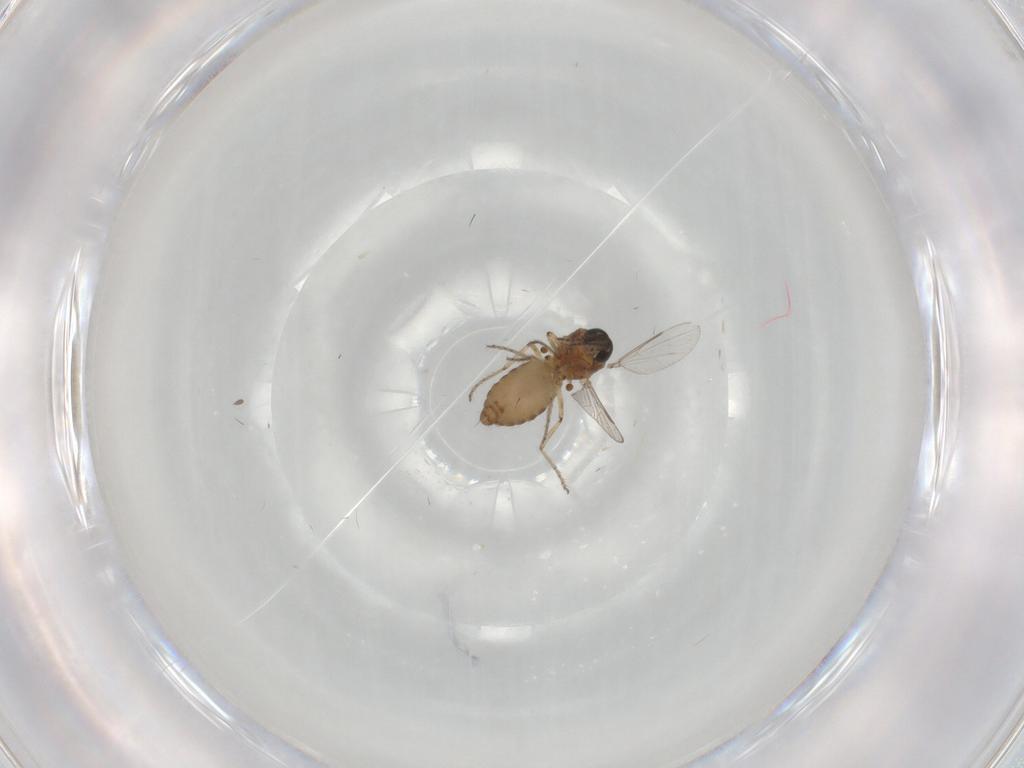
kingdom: Animalia
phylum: Arthropoda
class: Insecta
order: Diptera
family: Ceratopogonidae
